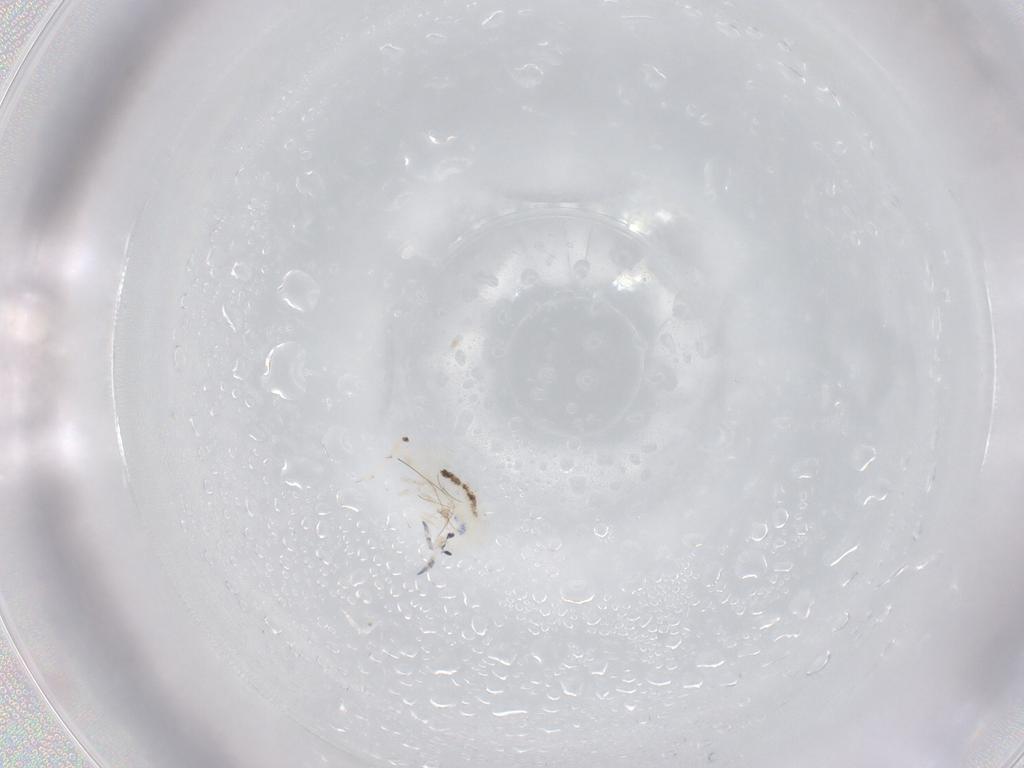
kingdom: Animalia
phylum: Arthropoda
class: Collembola
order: Entomobryomorpha
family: Entomobryidae
